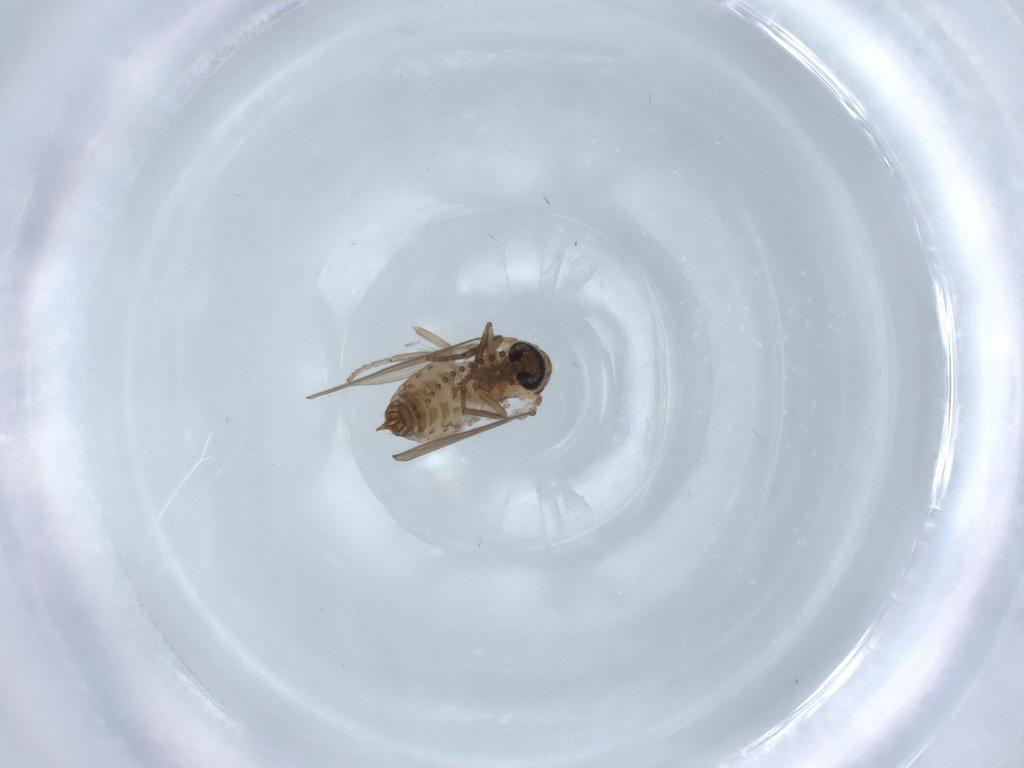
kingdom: Animalia
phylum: Arthropoda
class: Insecta
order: Diptera
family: Psychodidae
